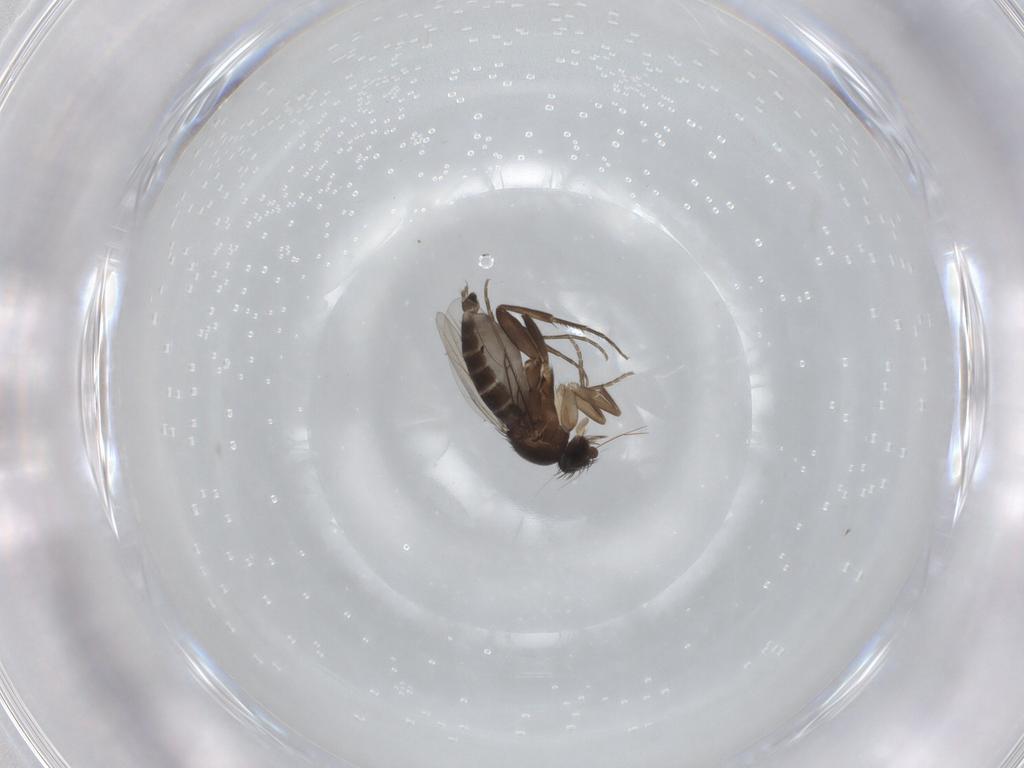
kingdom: Animalia
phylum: Arthropoda
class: Insecta
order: Diptera
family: Phoridae
